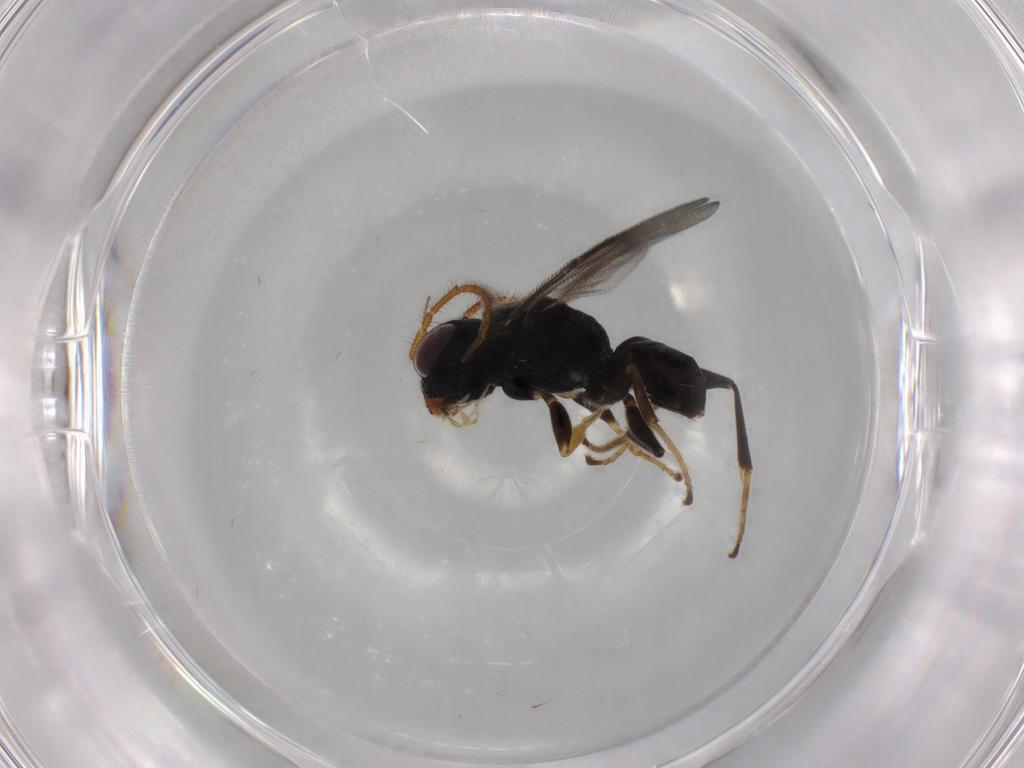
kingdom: Animalia
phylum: Arthropoda
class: Insecta
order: Hymenoptera
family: Dryinidae
